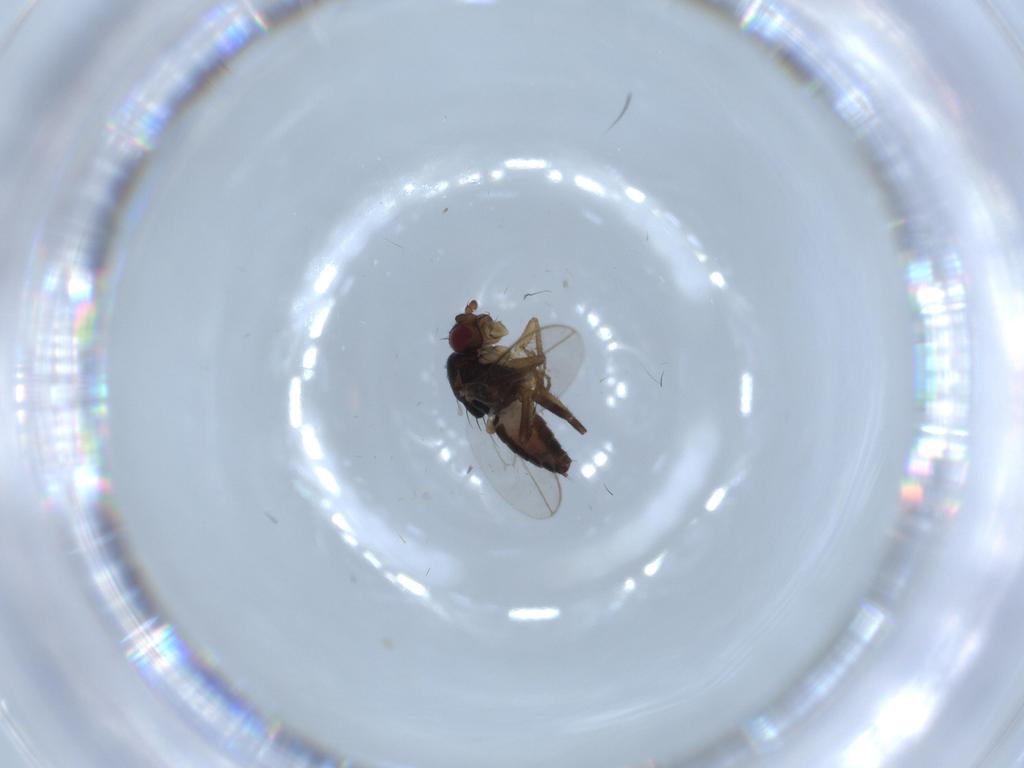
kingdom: Animalia
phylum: Arthropoda
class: Insecta
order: Diptera
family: Sphaeroceridae
